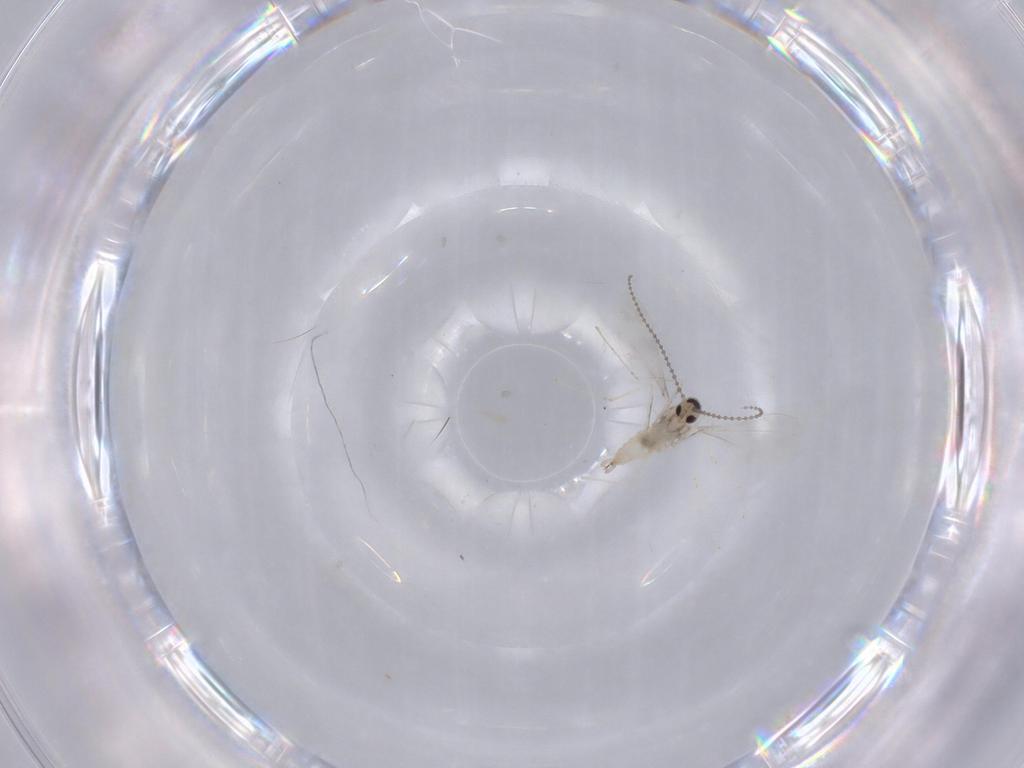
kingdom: Animalia
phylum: Arthropoda
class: Insecta
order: Diptera
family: Cecidomyiidae
